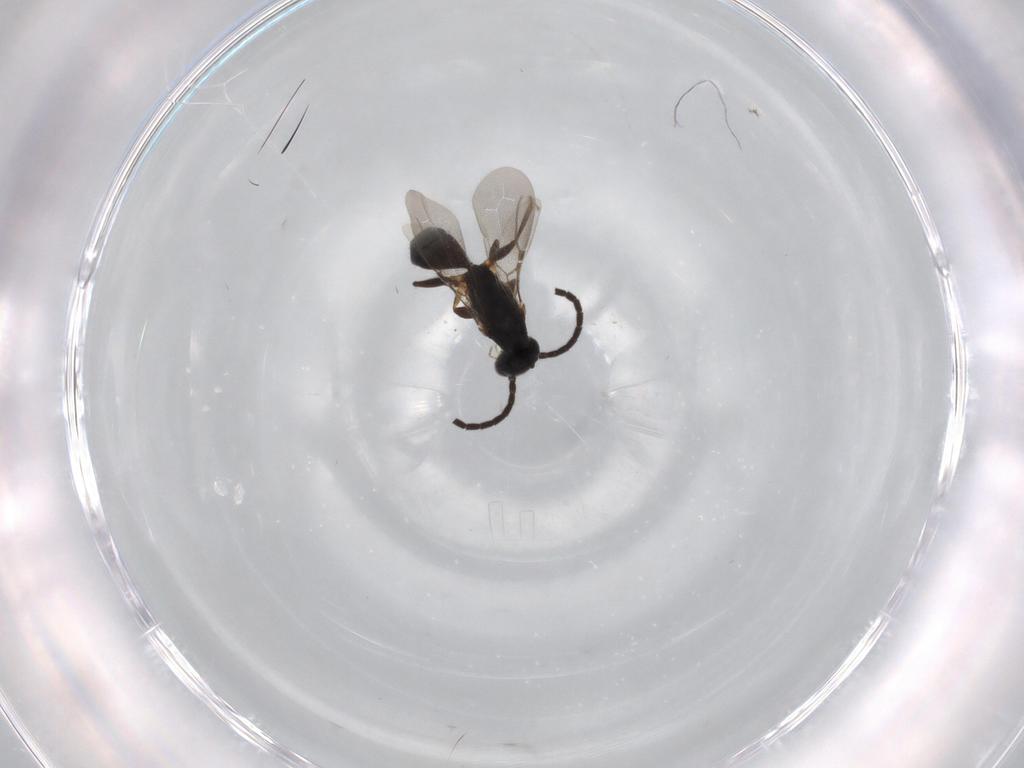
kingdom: Animalia
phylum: Arthropoda
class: Insecta
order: Hymenoptera
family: Bethylidae
